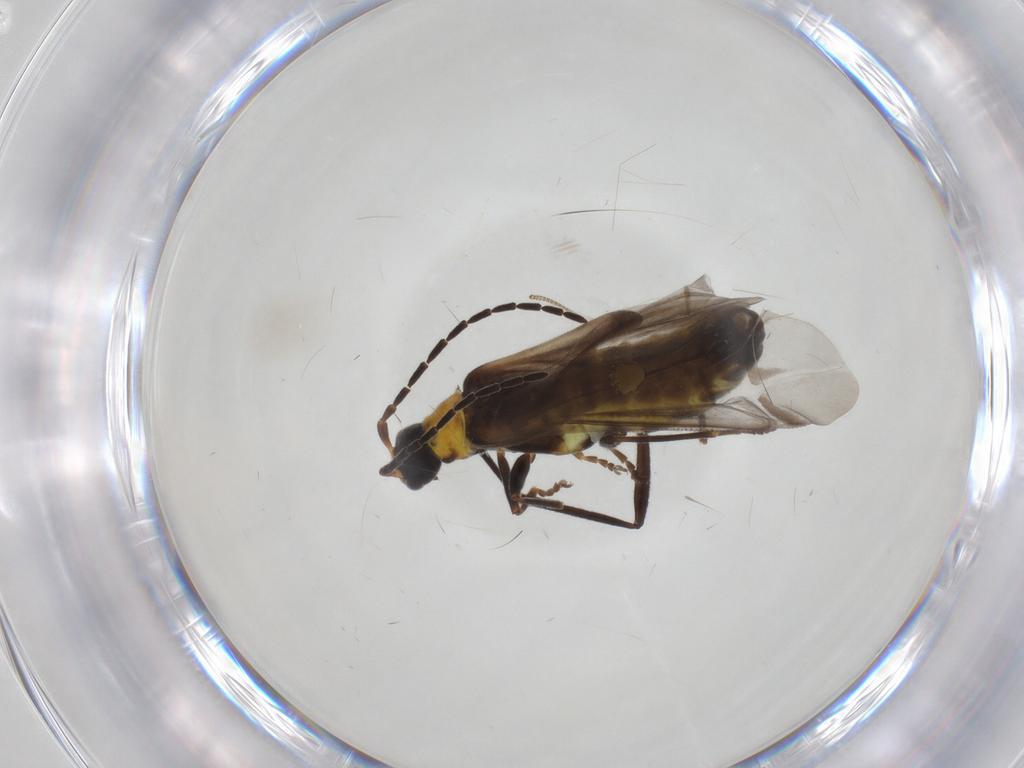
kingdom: Animalia
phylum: Arthropoda
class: Insecta
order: Coleoptera
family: Cantharidae
